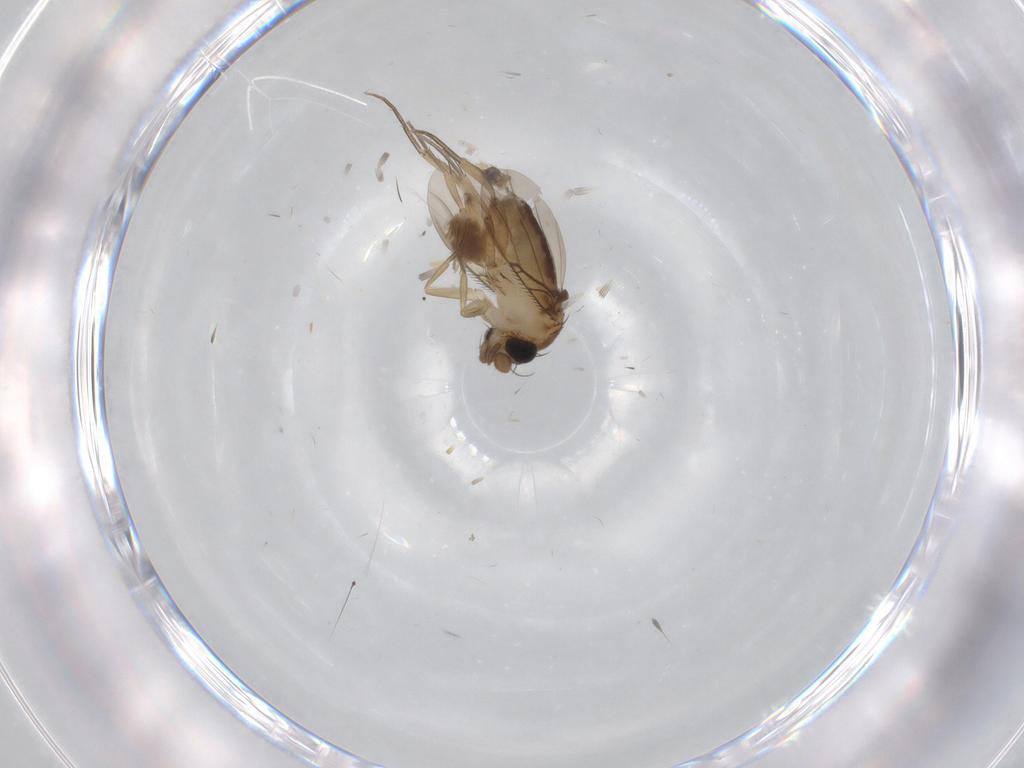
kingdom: Animalia
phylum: Arthropoda
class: Insecta
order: Diptera
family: Phoridae
